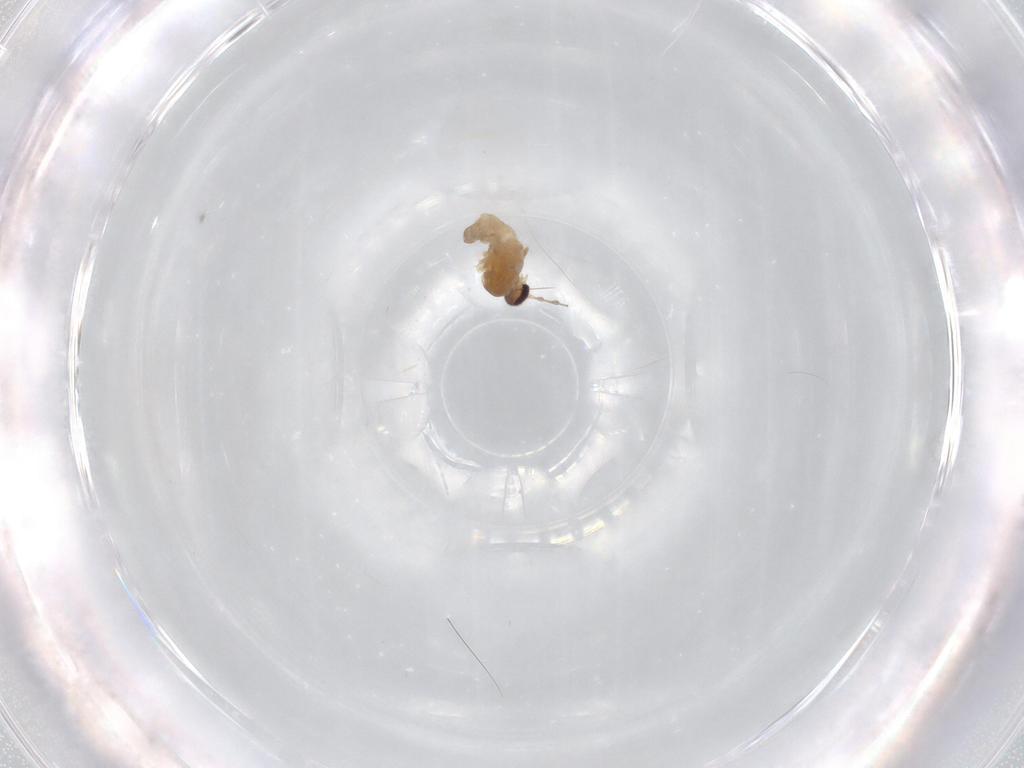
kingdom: Animalia
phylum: Arthropoda
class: Insecta
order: Diptera
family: Cecidomyiidae
